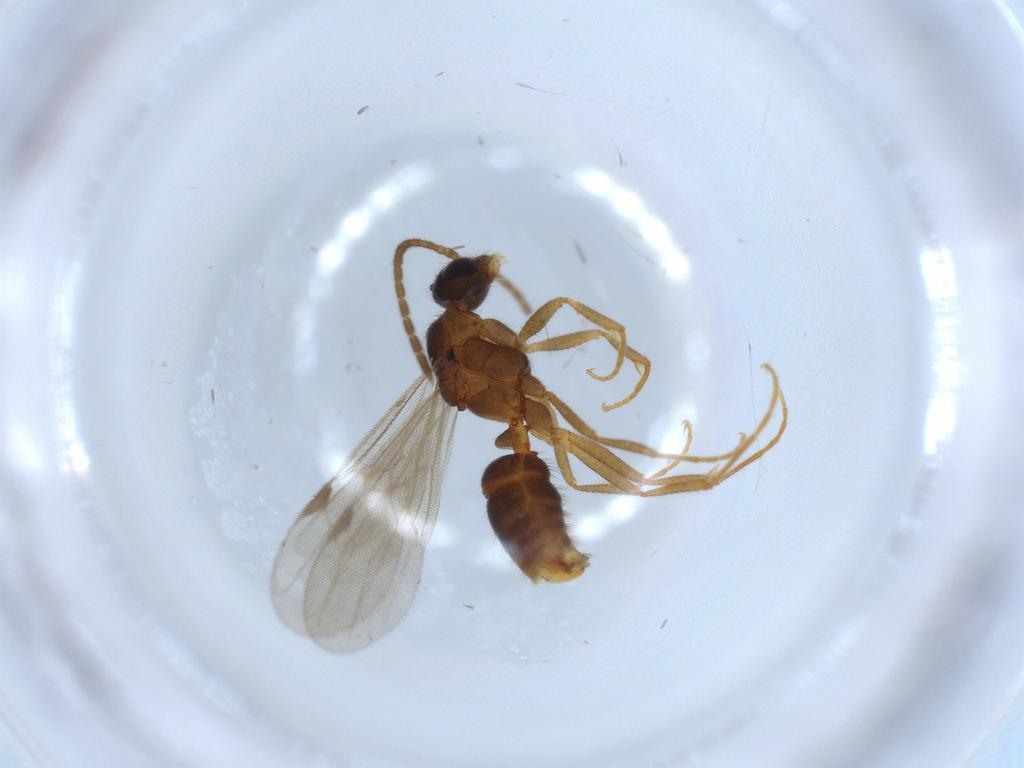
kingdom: Animalia
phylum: Arthropoda
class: Insecta
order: Hymenoptera
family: Formicidae
